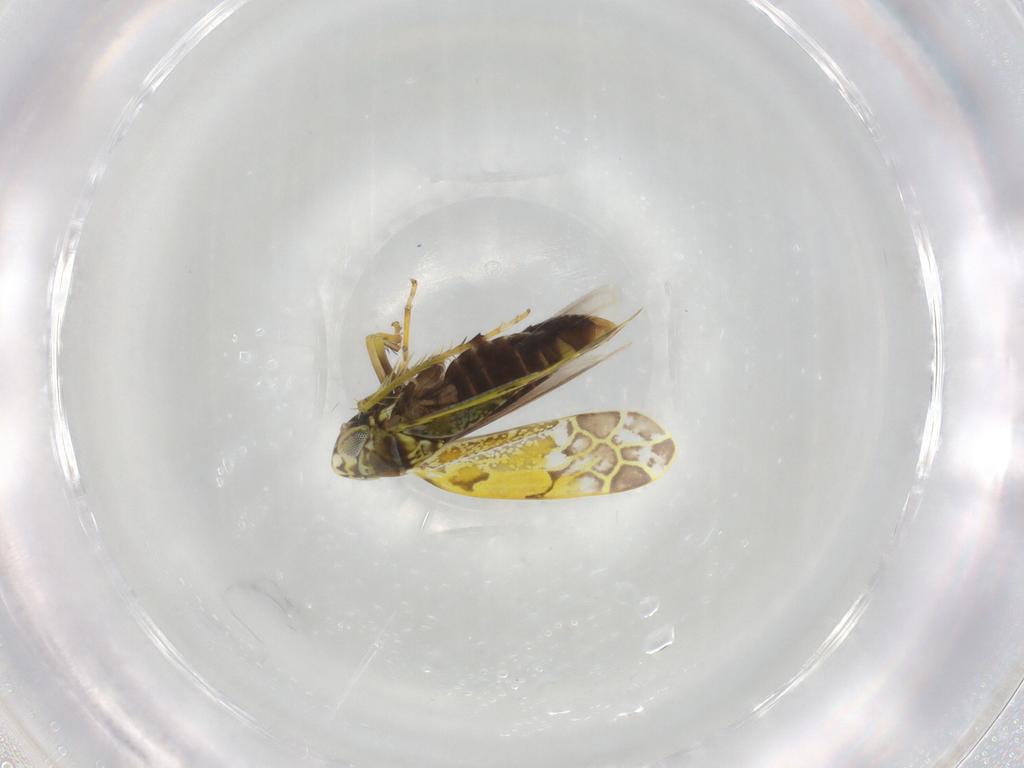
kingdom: Animalia
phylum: Arthropoda
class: Insecta
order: Hemiptera
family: Cicadellidae
